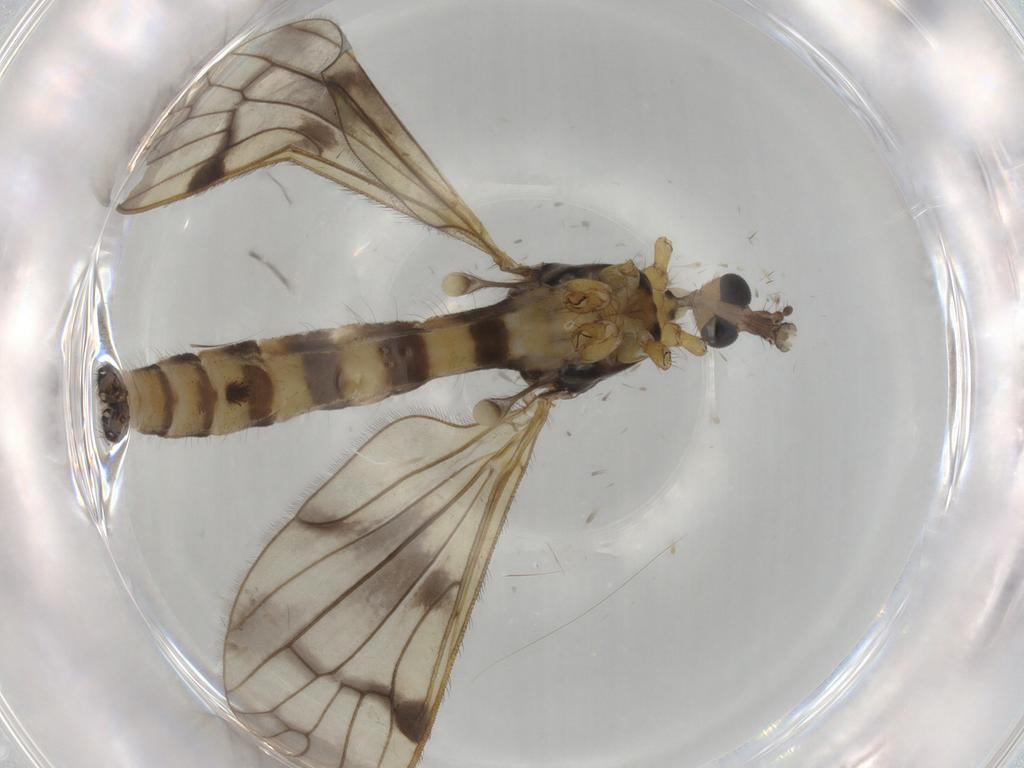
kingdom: Animalia
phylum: Arthropoda
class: Insecta
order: Diptera
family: Limoniidae
